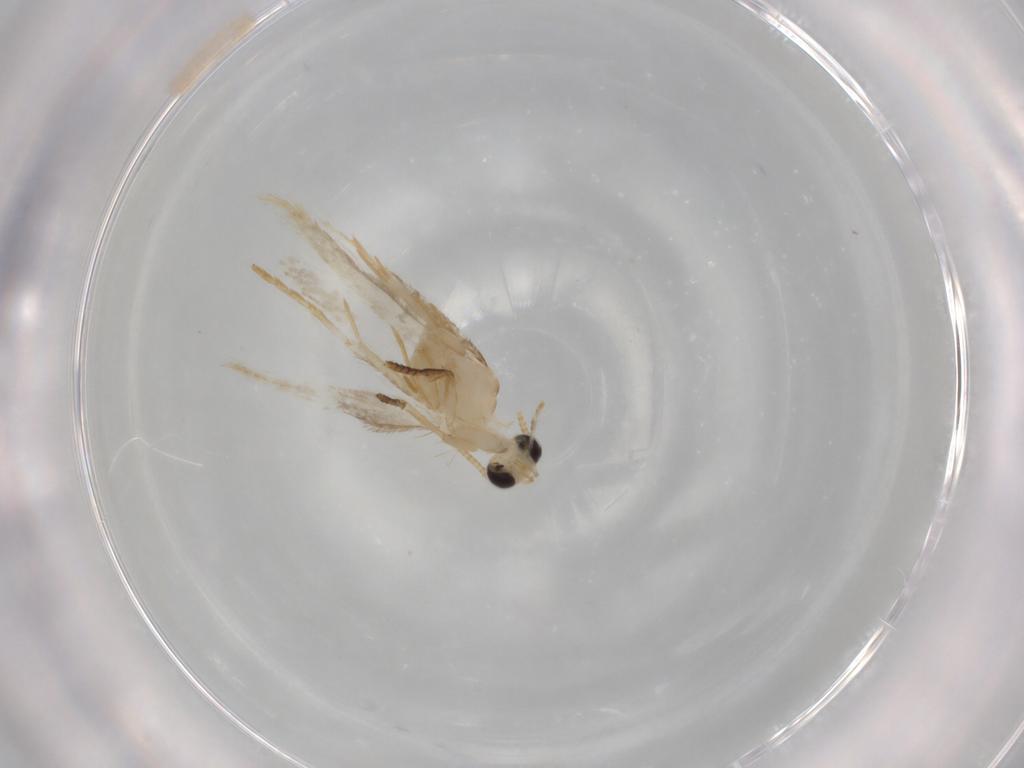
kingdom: Animalia
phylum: Arthropoda
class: Insecta
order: Lepidoptera
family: Tineidae
